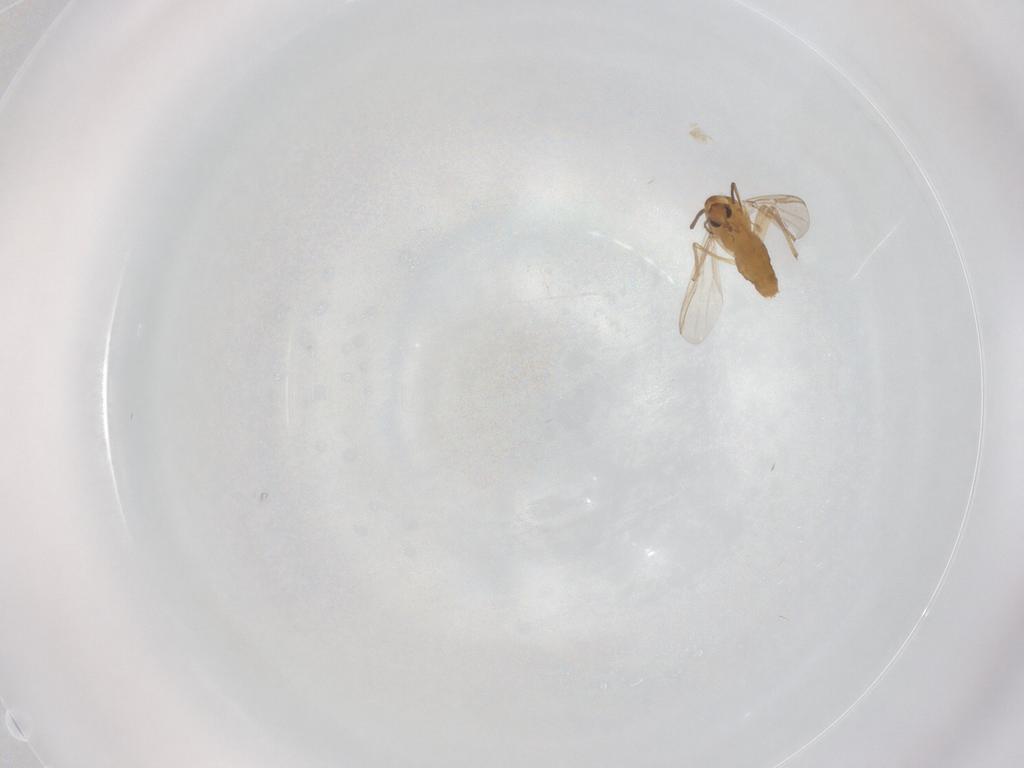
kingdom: Animalia
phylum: Arthropoda
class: Insecta
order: Diptera
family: Chironomidae
